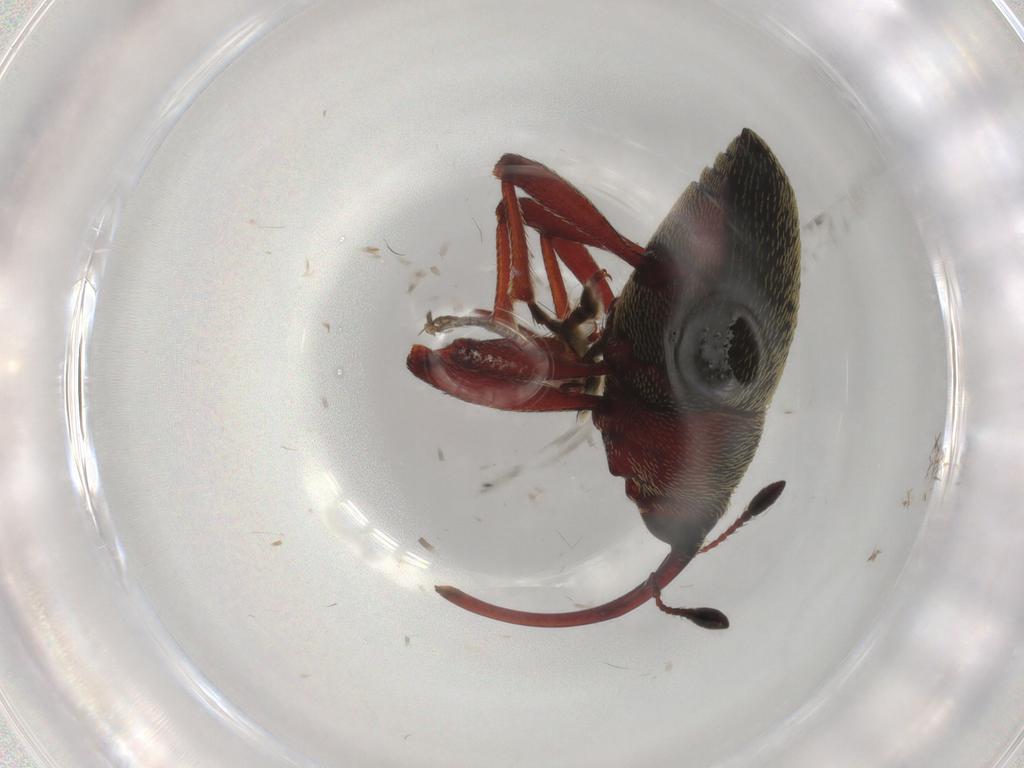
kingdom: Animalia
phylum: Arthropoda
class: Insecta
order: Coleoptera
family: Curculionidae
